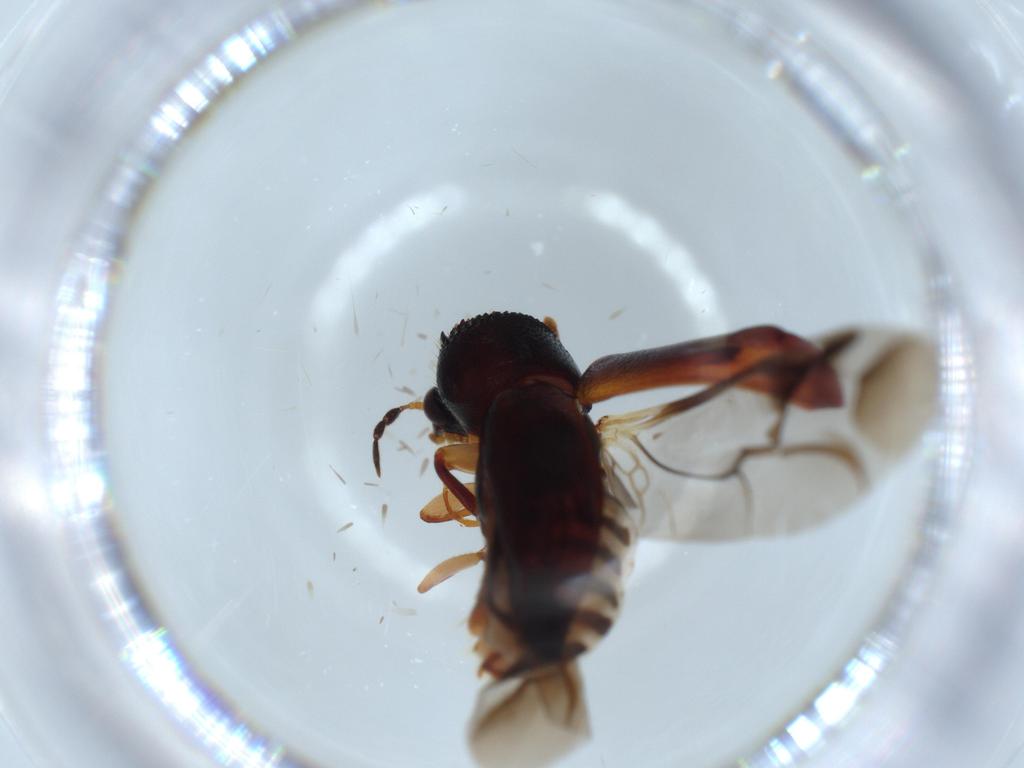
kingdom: Animalia
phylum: Arthropoda
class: Insecta
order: Coleoptera
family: Bostrichidae
